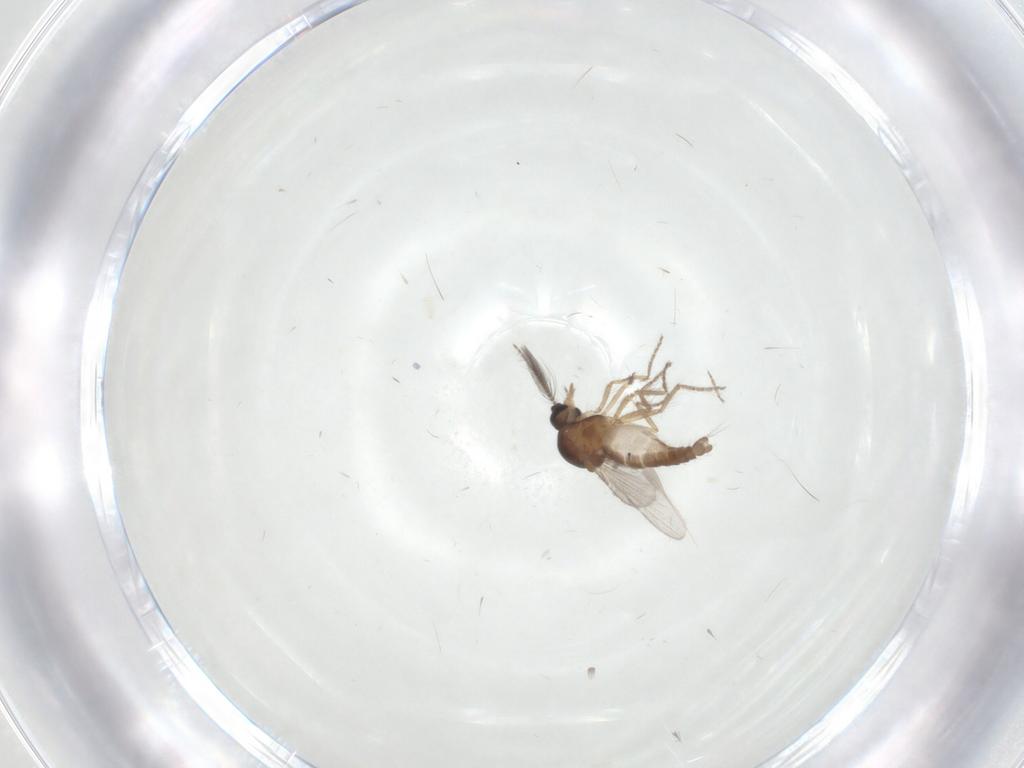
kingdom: Animalia
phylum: Arthropoda
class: Insecta
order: Diptera
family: Ceratopogonidae
